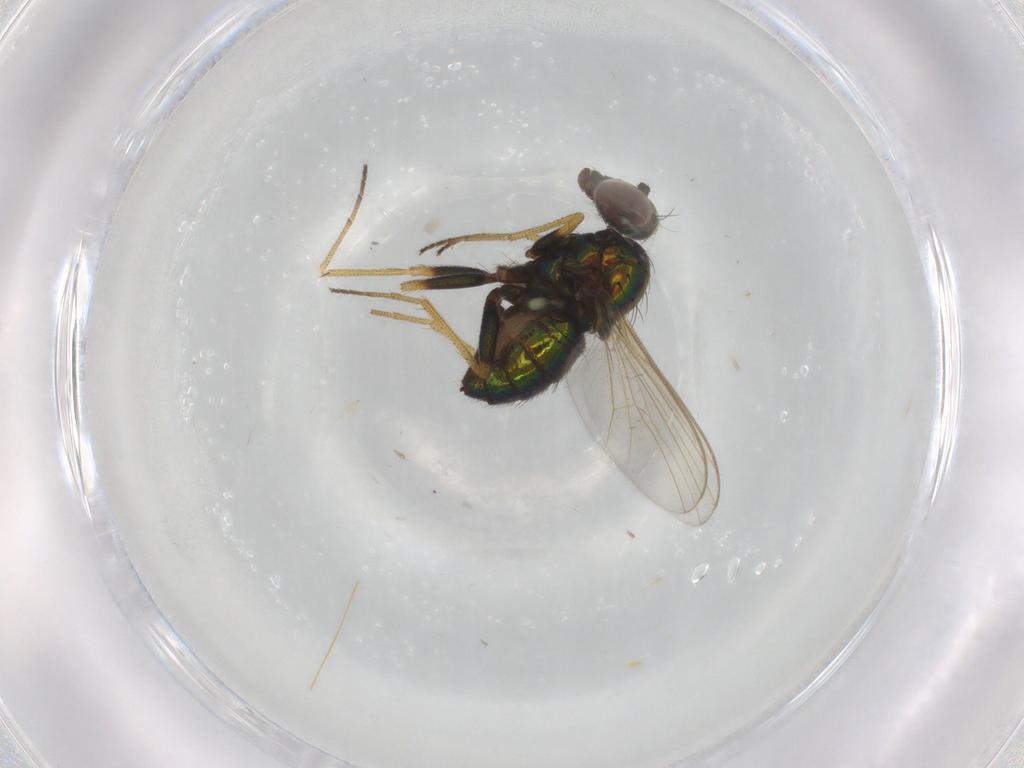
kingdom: Animalia
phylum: Arthropoda
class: Insecta
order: Diptera
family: Dolichopodidae
